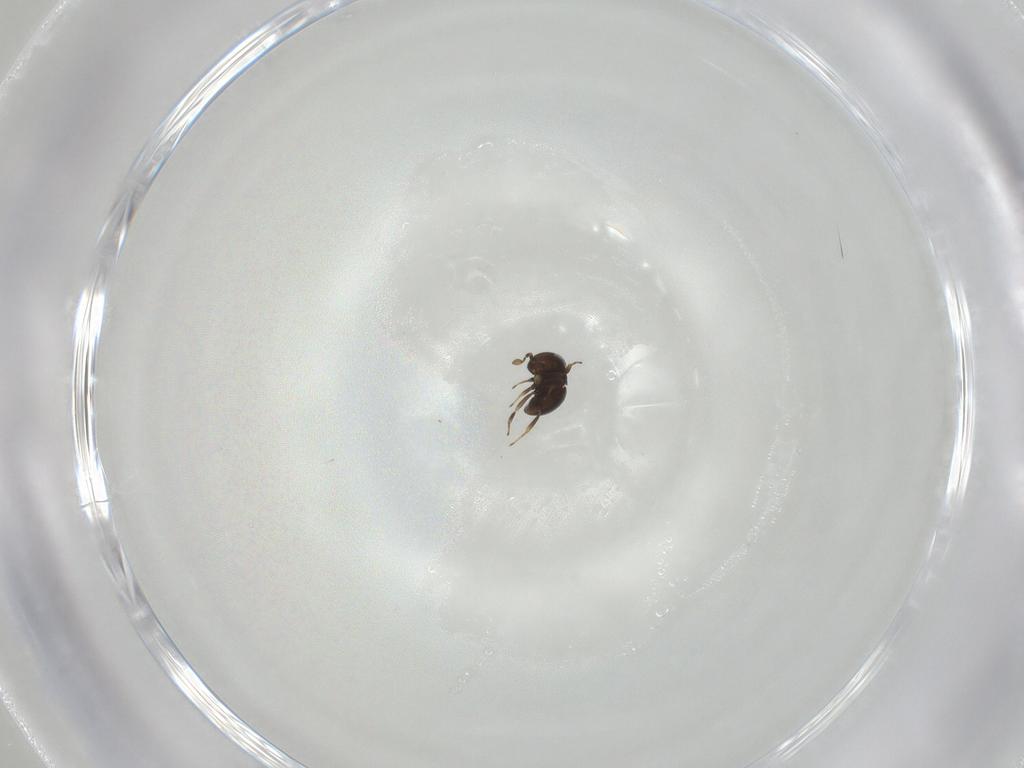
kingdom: Animalia
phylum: Arthropoda
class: Insecta
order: Hymenoptera
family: Scelionidae
